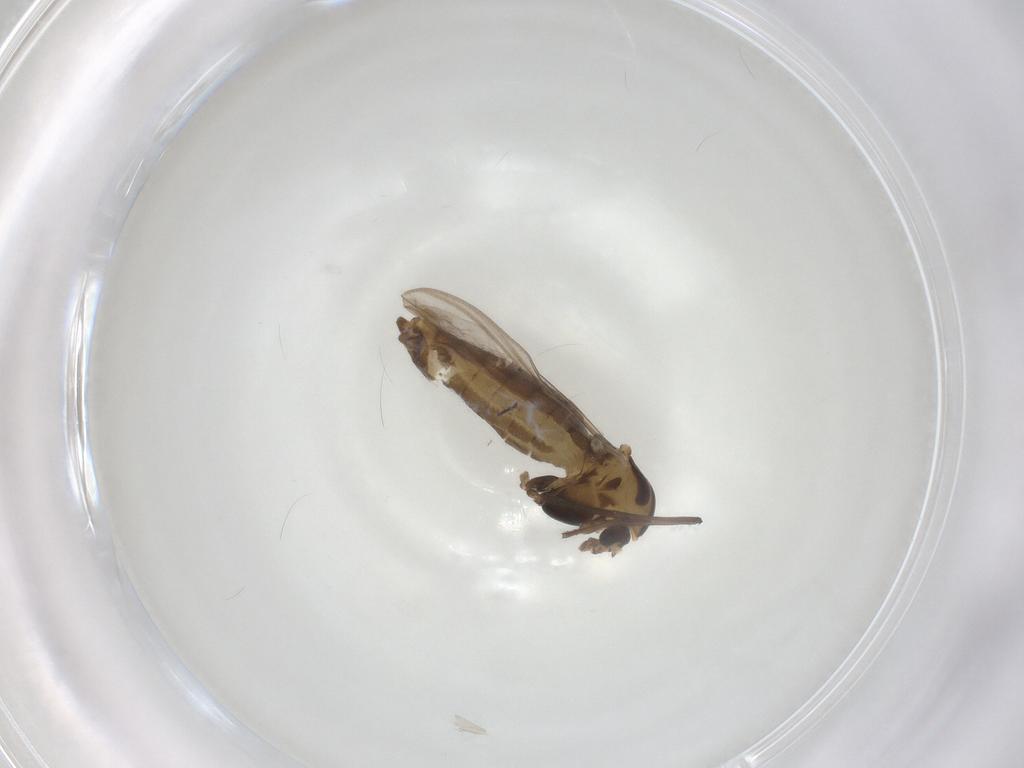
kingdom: Animalia
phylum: Arthropoda
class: Insecta
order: Diptera
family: Chironomidae
